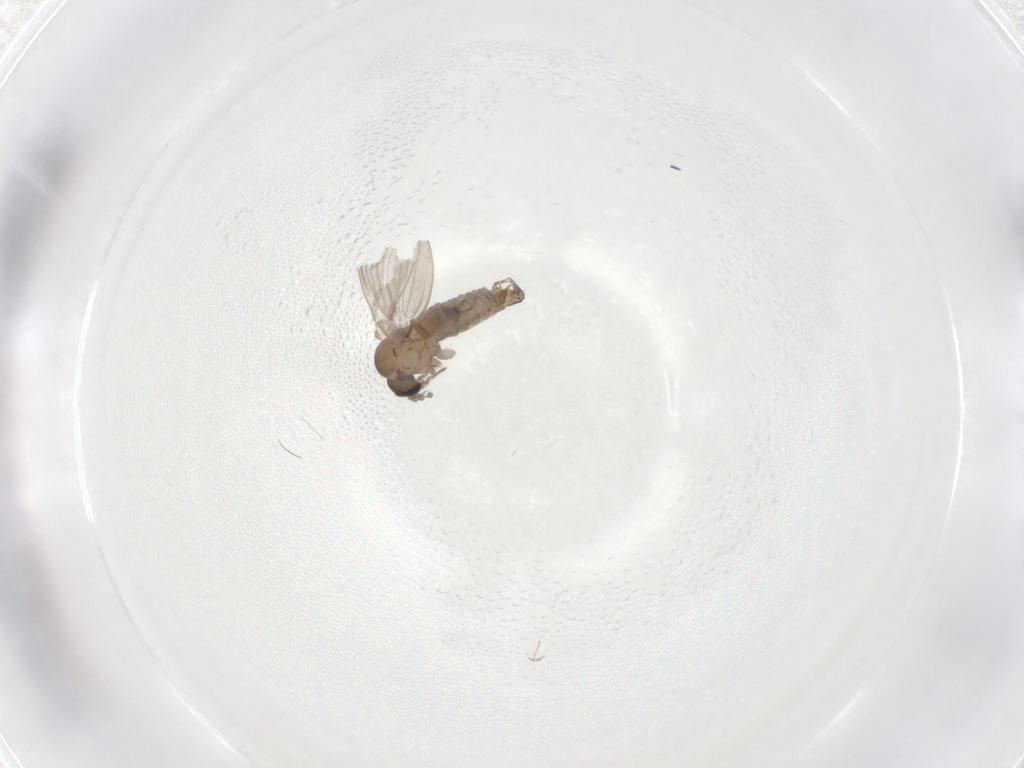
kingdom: Animalia
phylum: Arthropoda
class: Insecta
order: Diptera
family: Psychodidae
